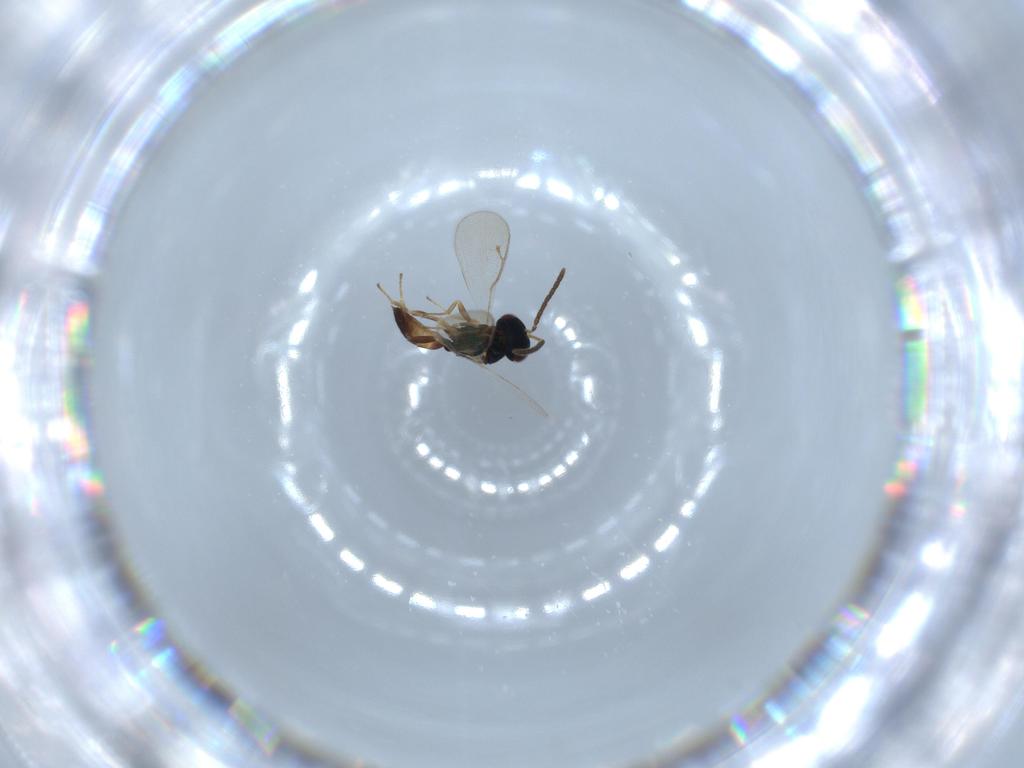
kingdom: Animalia
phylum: Arthropoda
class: Insecta
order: Hymenoptera
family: Pteromalidae
